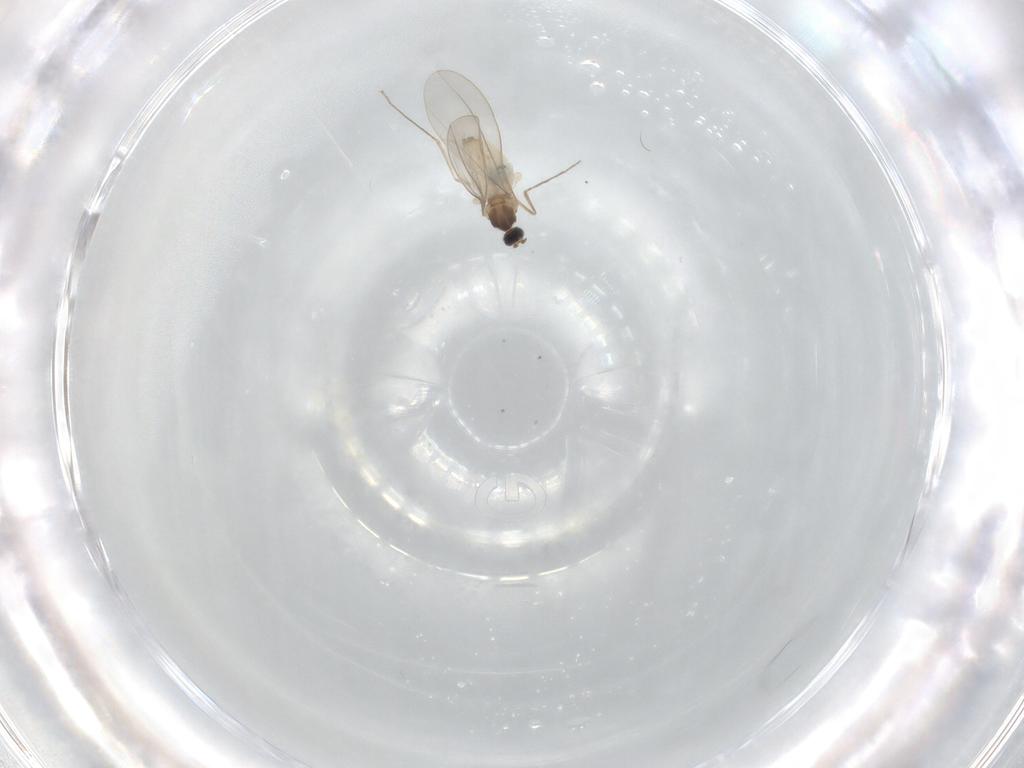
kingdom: Animalia
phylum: Arthropoda
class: Insecta
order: Diptera
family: Cecidomyiidae
